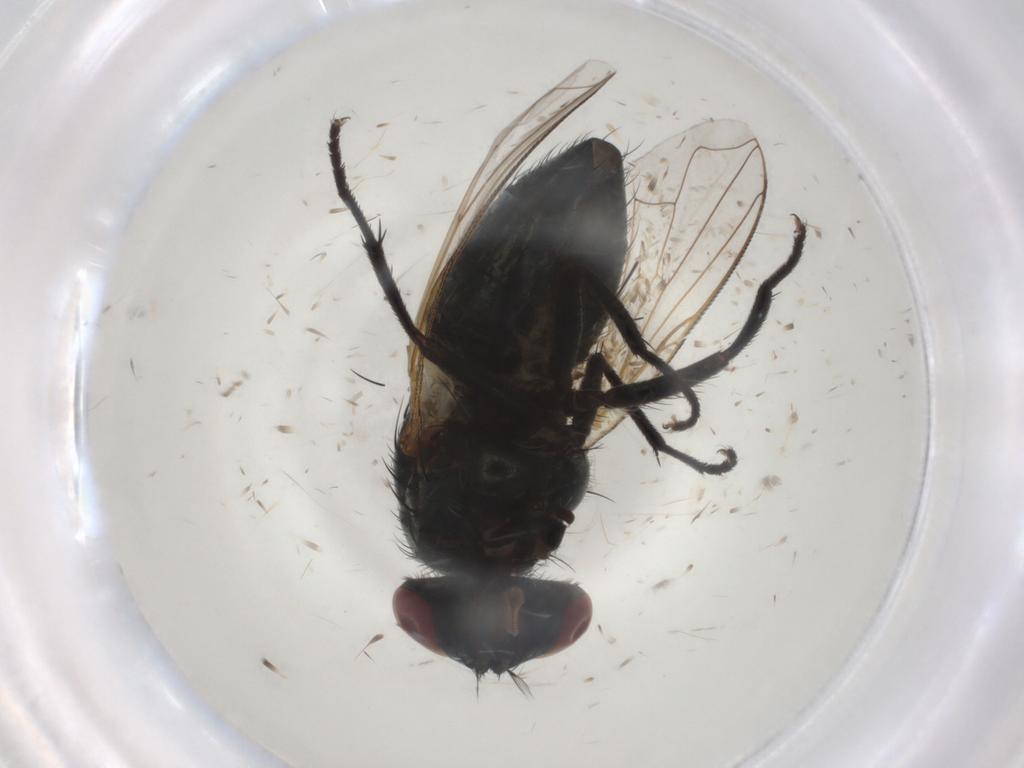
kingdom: Animalia
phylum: Arthropoda
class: Insecta
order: Diptera
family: Muscidae
